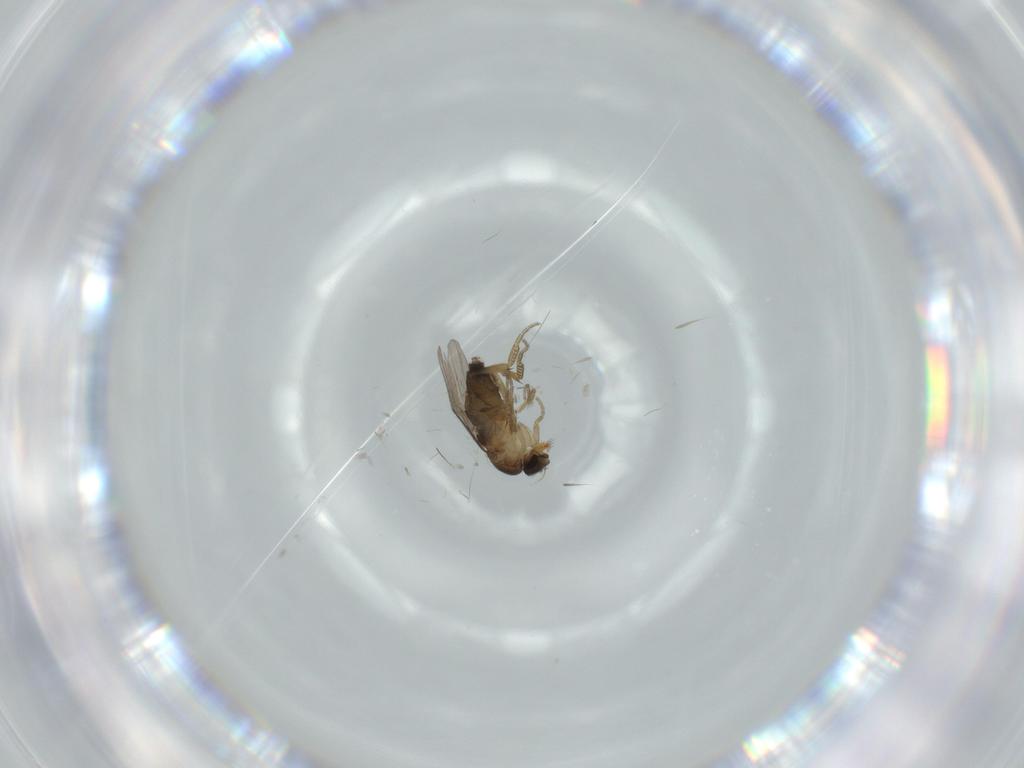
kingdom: Animalia
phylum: Arthropoda
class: Insecta
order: Diptera
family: Phoridae
